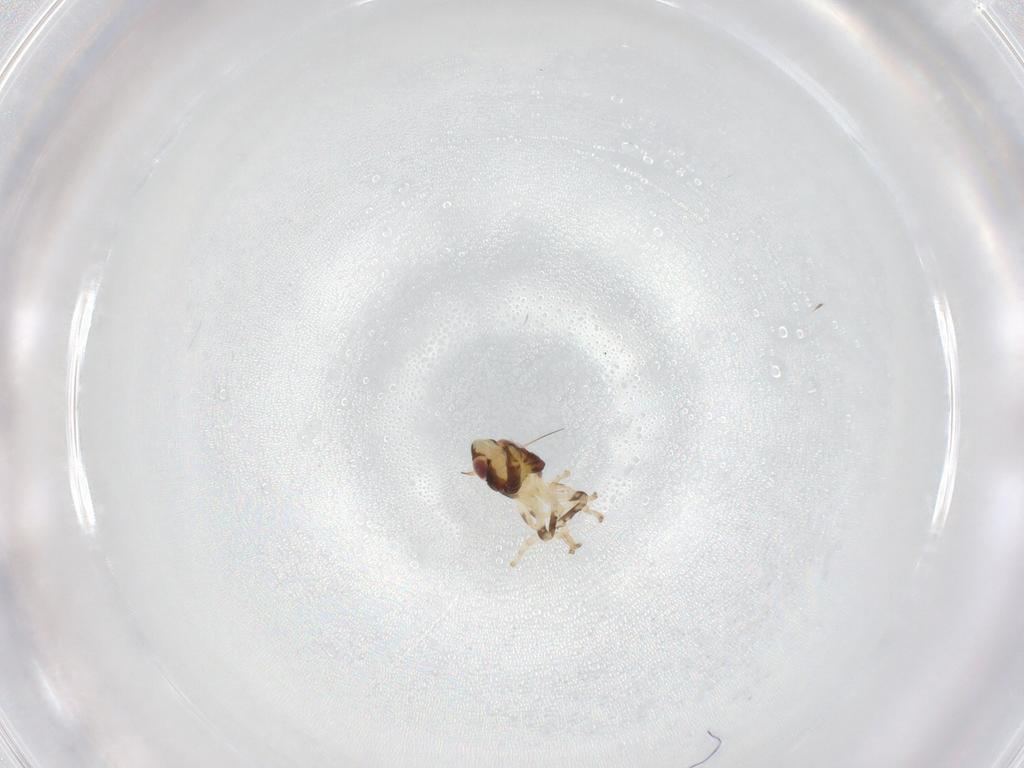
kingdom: Animalia
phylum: Arthropoda
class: Insecta
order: Hemiptera
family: Cicadellidae
